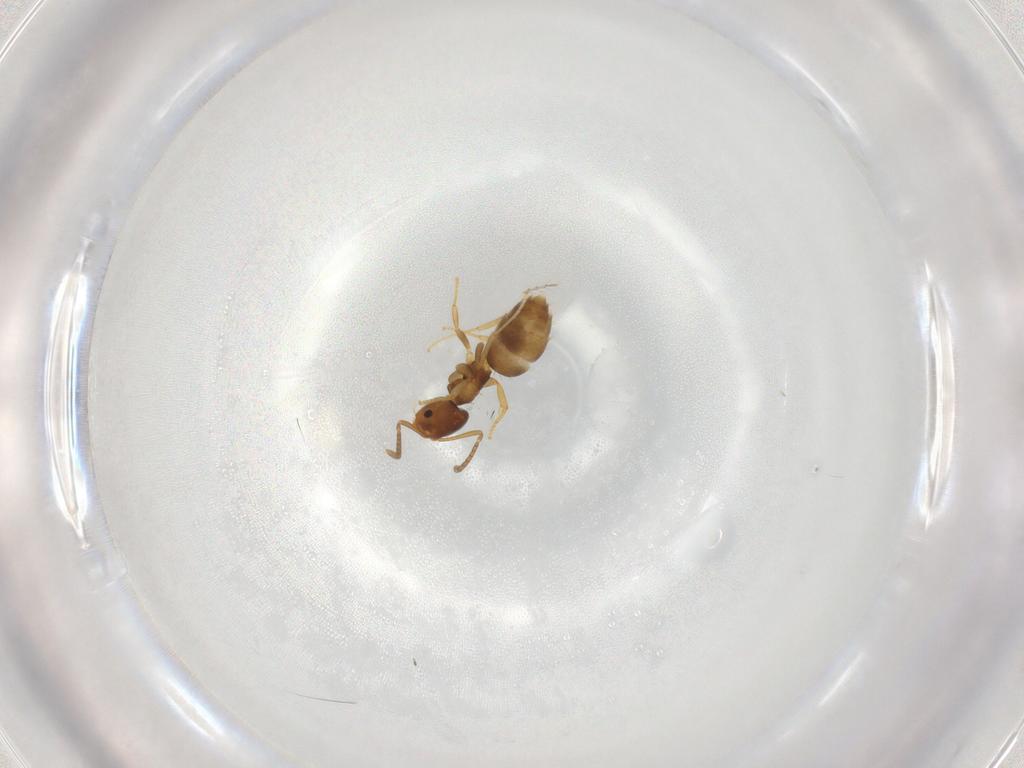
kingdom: Animalia
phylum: Arthropoda
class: Insecta
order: Hymenoptera
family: Formicidae
